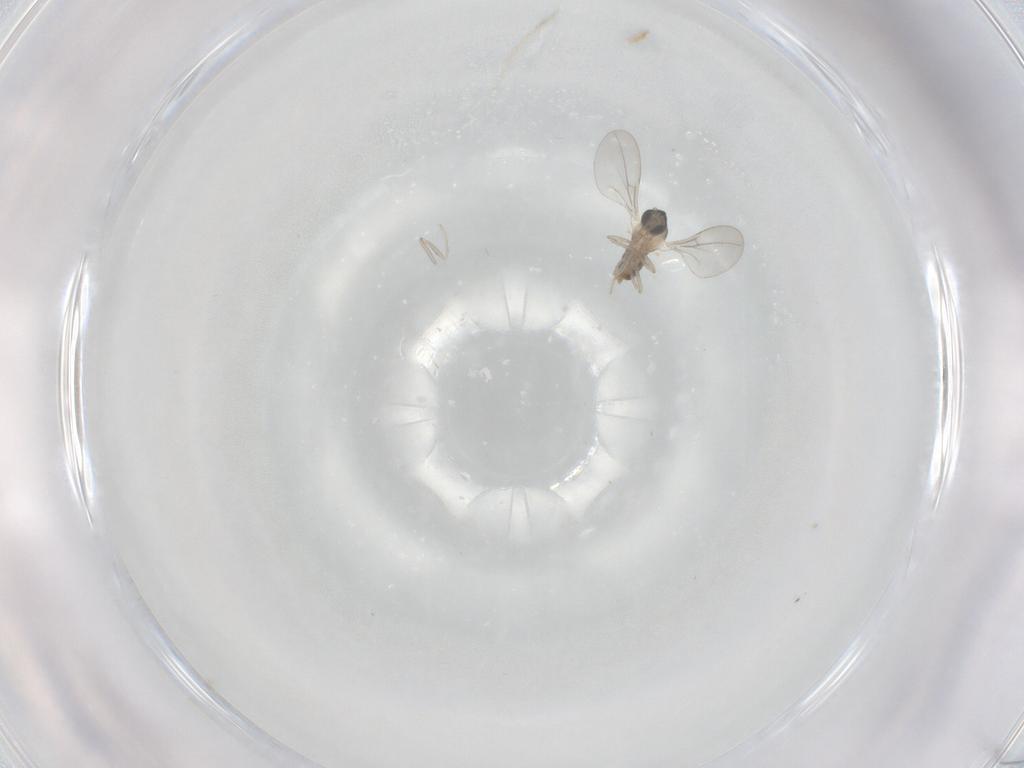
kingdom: Animalia
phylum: Arthropoda
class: Insecta
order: Diptera
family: Cecidomyiidae
